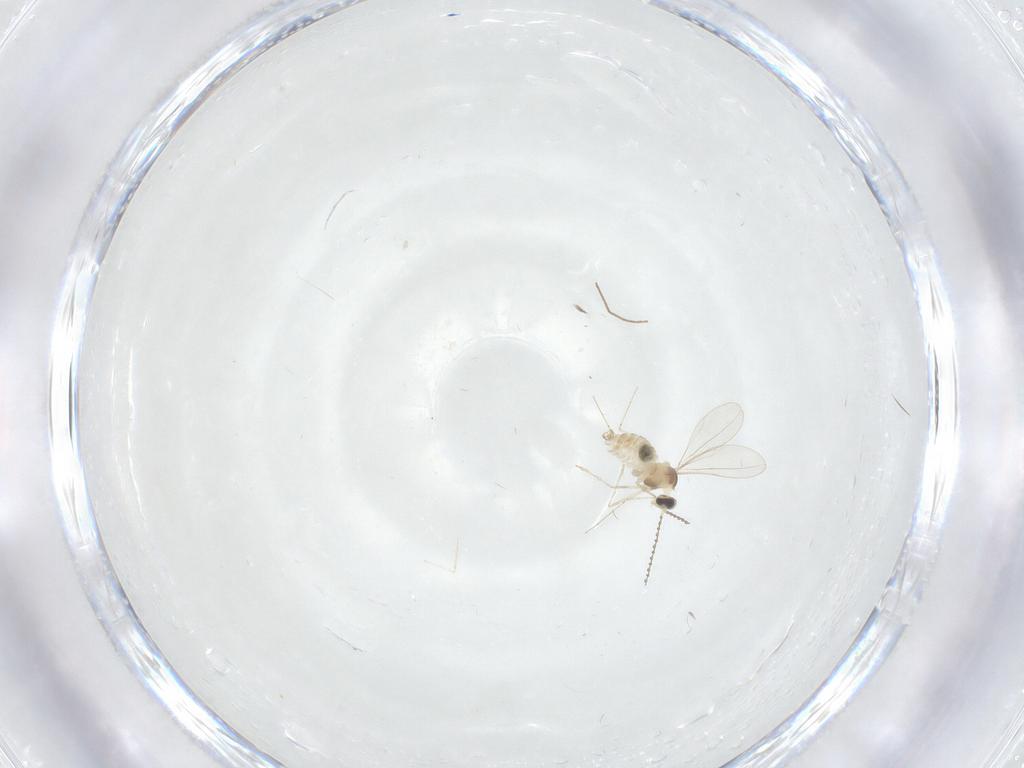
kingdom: Animalia
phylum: Arthropoda
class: Insecta
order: Diptera
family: Cecidomyiidae
